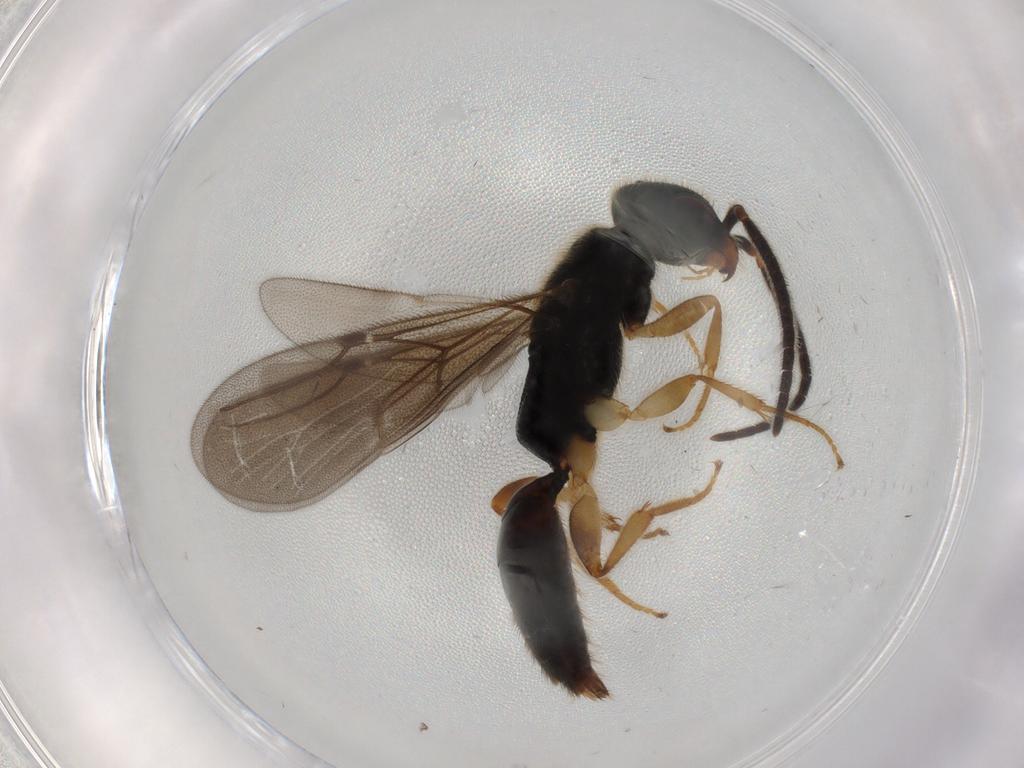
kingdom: Animalia
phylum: Arthropoda
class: Insecta
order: Hymenoptera
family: Bethylidae
